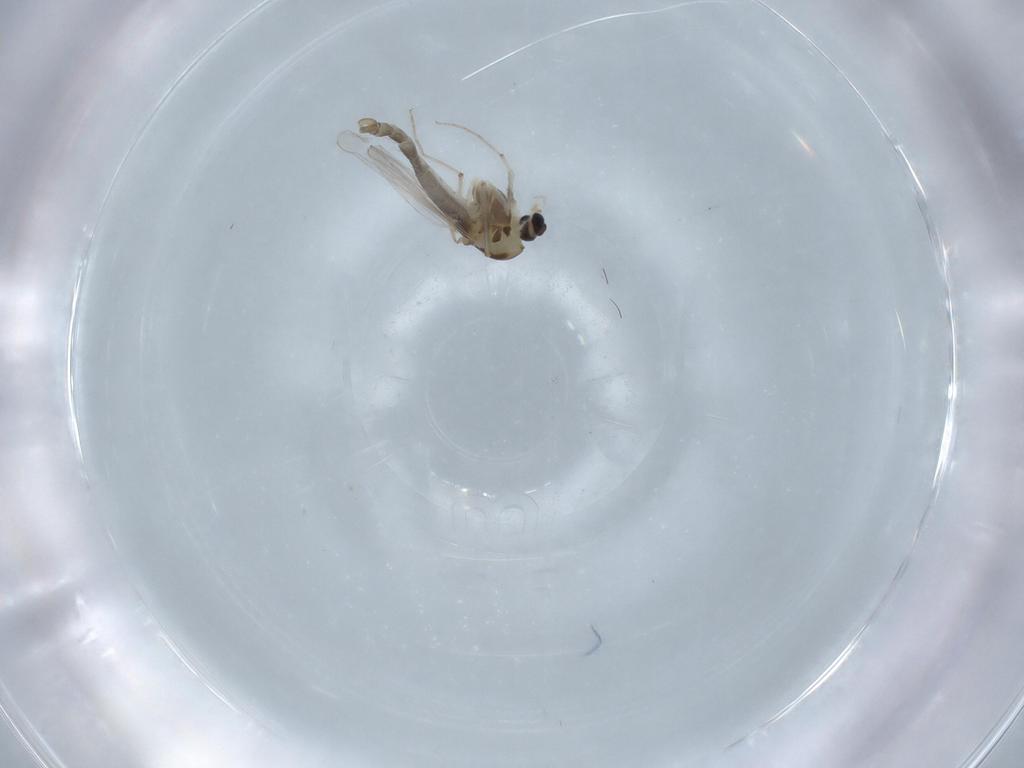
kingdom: Animalia
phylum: Arthropoda
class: Insecta
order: Diptera
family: Chironomidae
